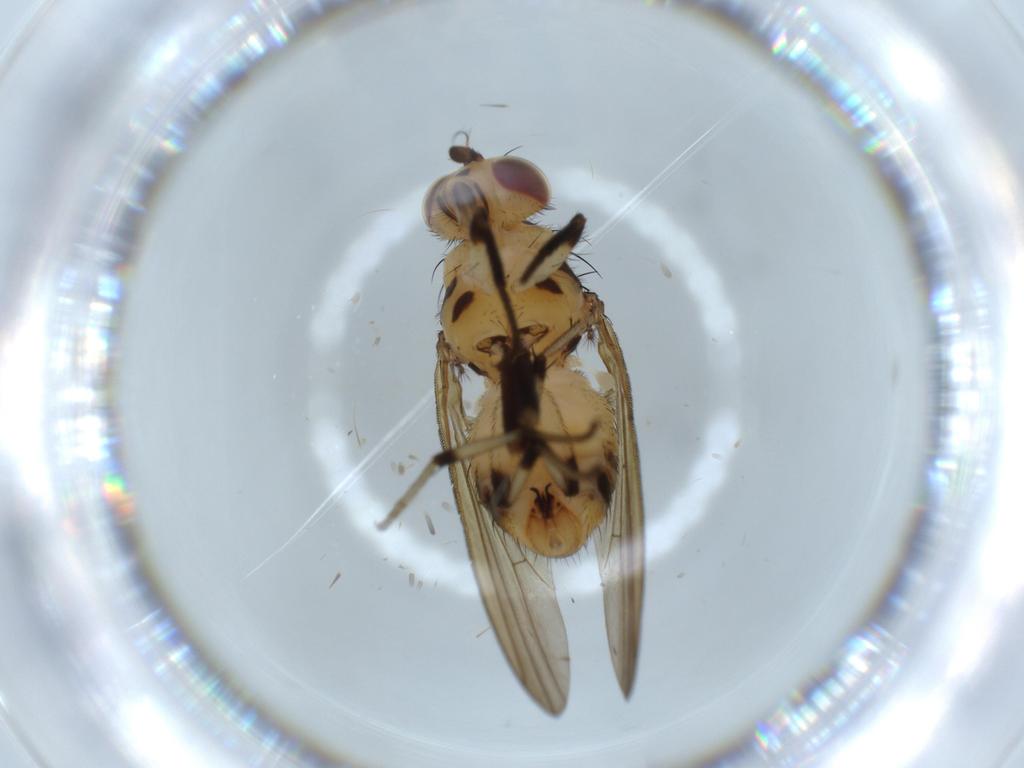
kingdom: Animalia
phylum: Arthropoda
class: Insecta
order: Diptera
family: Lauxaniidae
